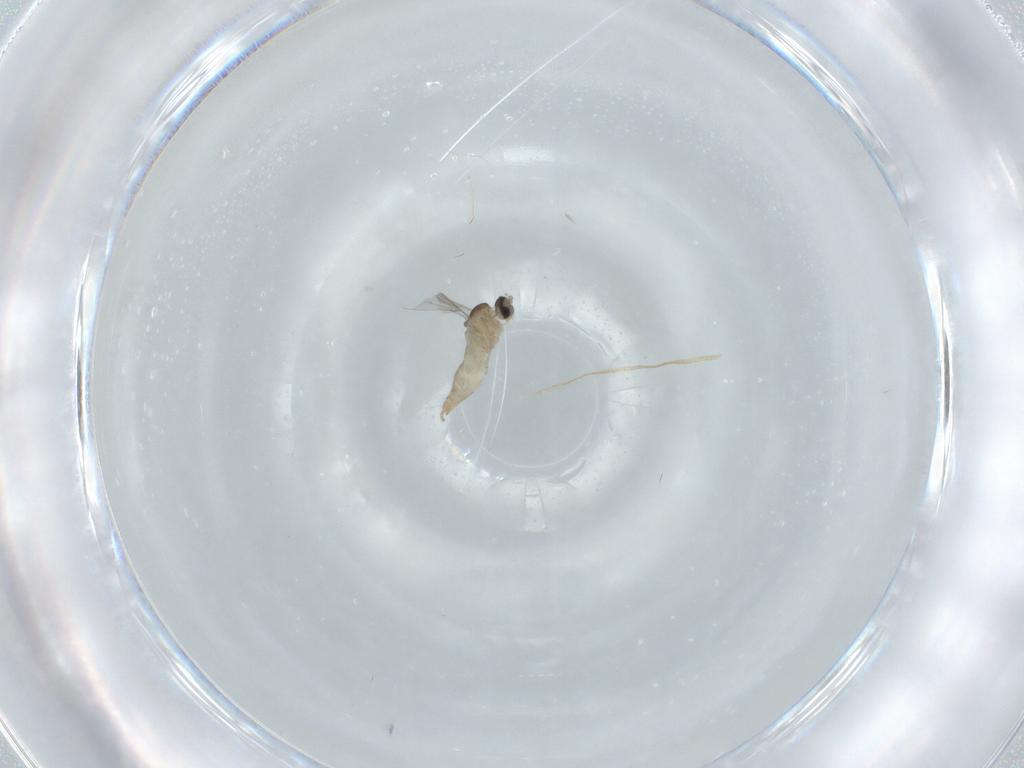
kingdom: Animalia
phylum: Arthropoda
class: Insecta
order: Diptera
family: Cecidomyiidae
